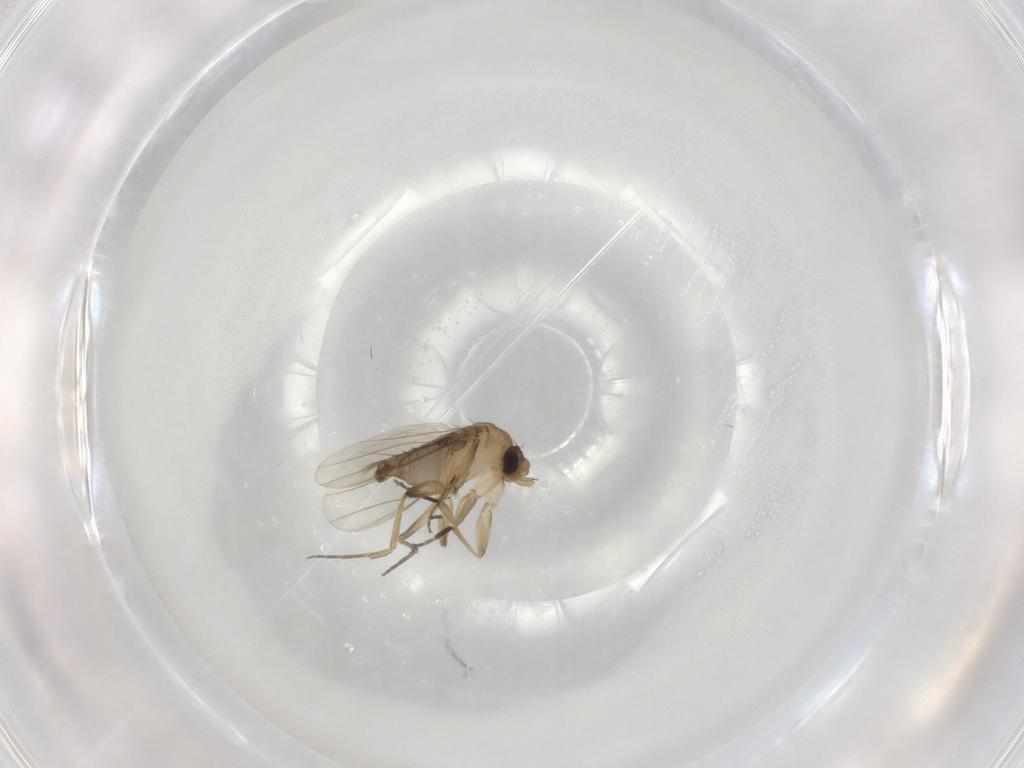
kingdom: Animalia
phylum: Arthropoda
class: Insecta
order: Diptera
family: Phoridae
